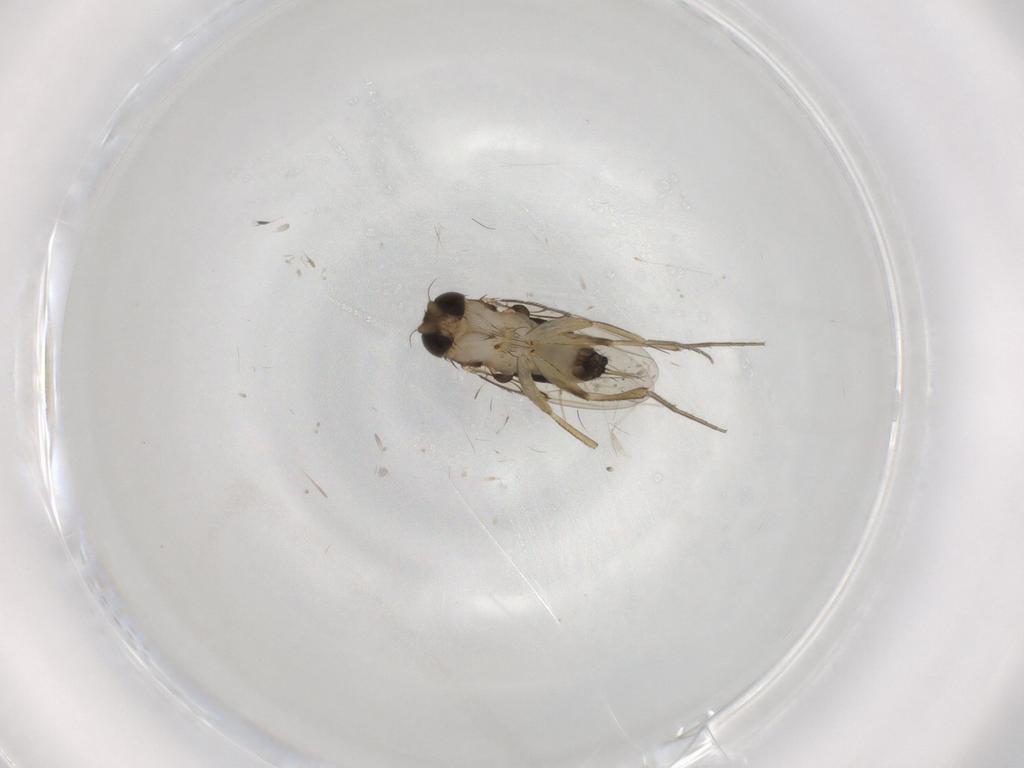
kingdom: Animalia
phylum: Arthropoda
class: Insecta
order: Diptera
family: Phoridae
